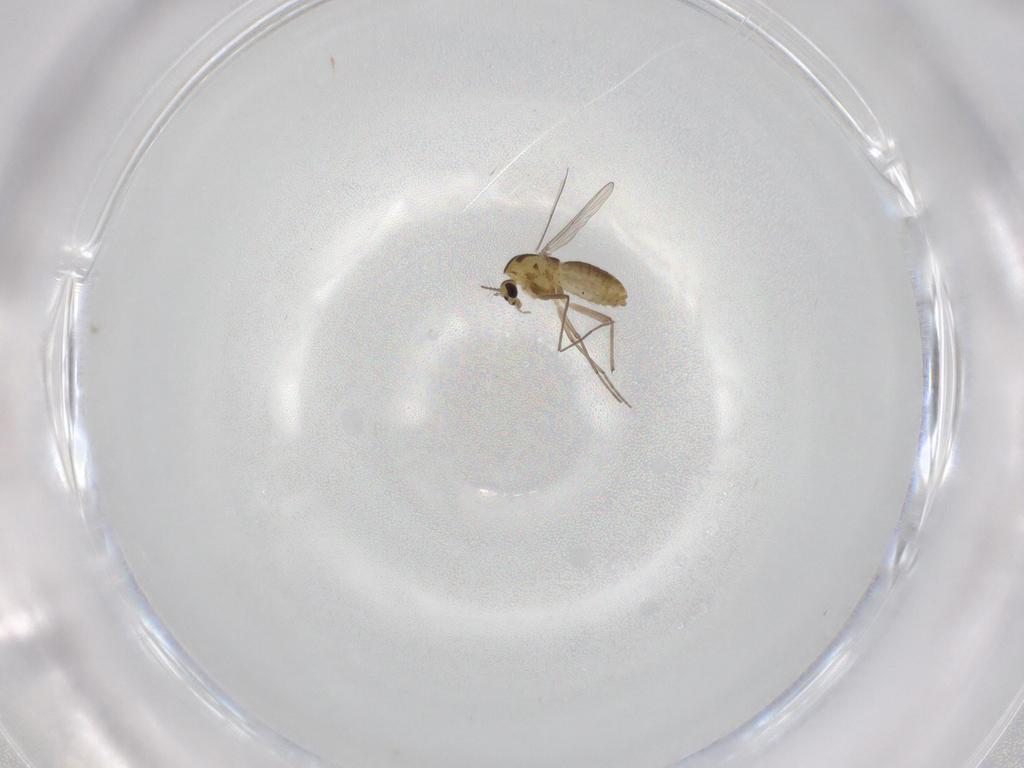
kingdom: Animalia
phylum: Arthropoda
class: Insecta
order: Diptera
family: Chironomidae
